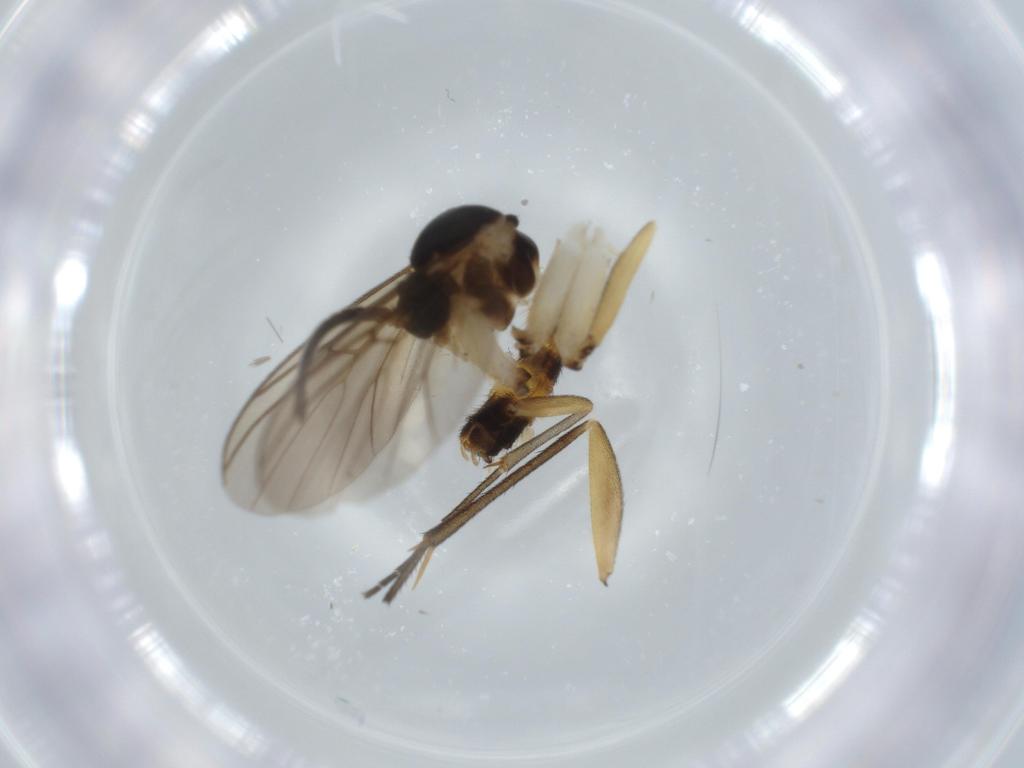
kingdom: Animalia
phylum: Arthropoda
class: Insecta
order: Diptera
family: Mycetophilidae
